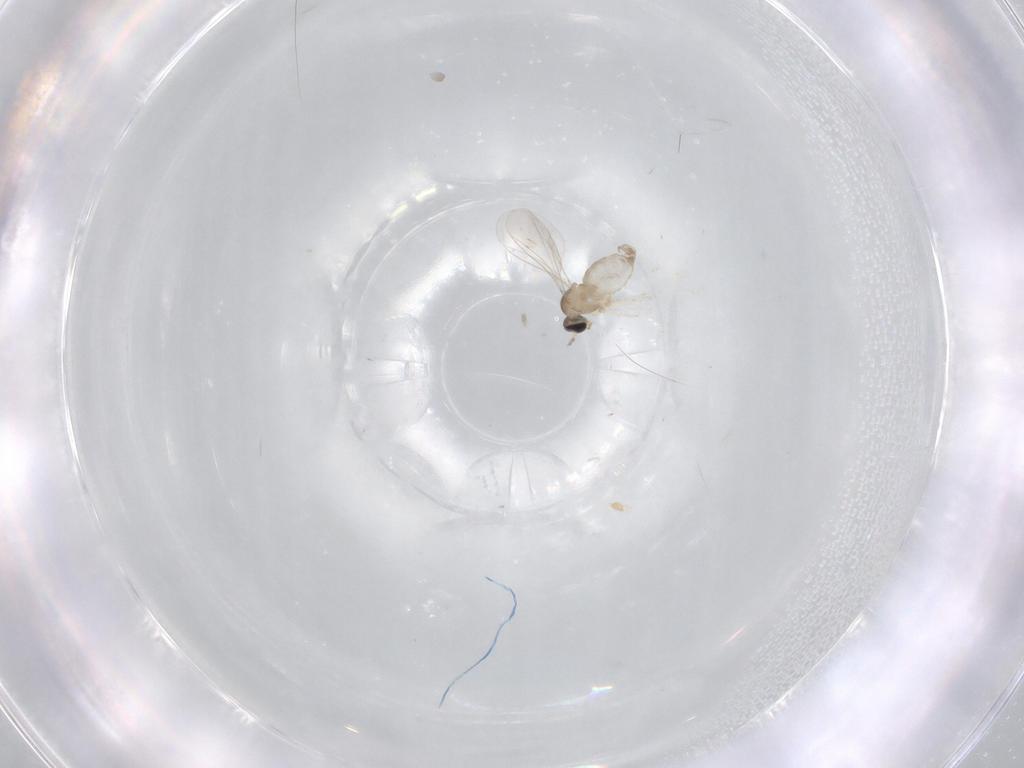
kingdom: Animalia
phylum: Arthropoda
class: Insecta
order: Diptera
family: Cecidomyiidae
